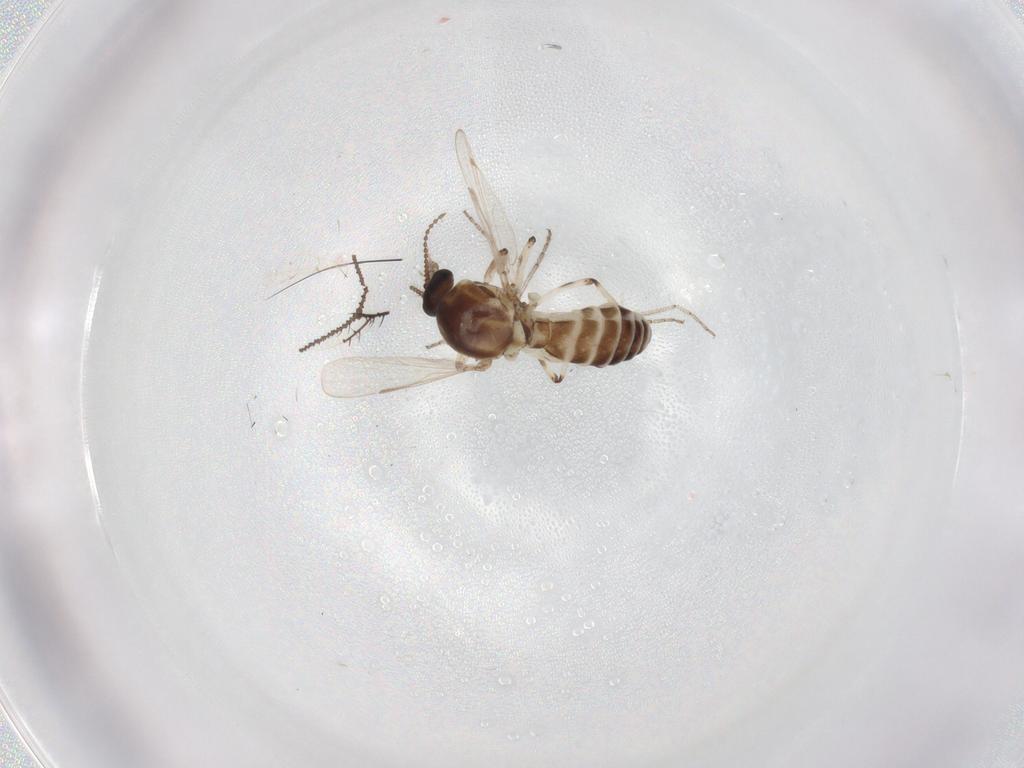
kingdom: Animalia
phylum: Arthropoda
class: Insecta
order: Diptera
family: Ceratopogonidae
